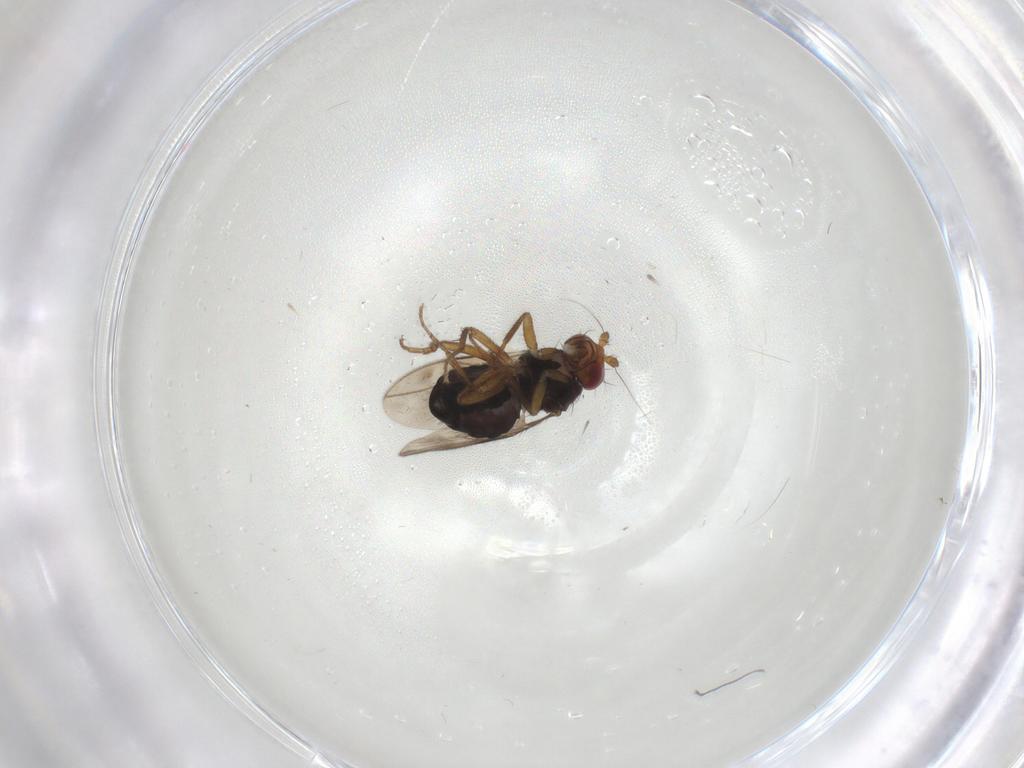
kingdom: Animalia
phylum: Arthropoda
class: Insecta
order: Diptera
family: Sphaeroceridae
